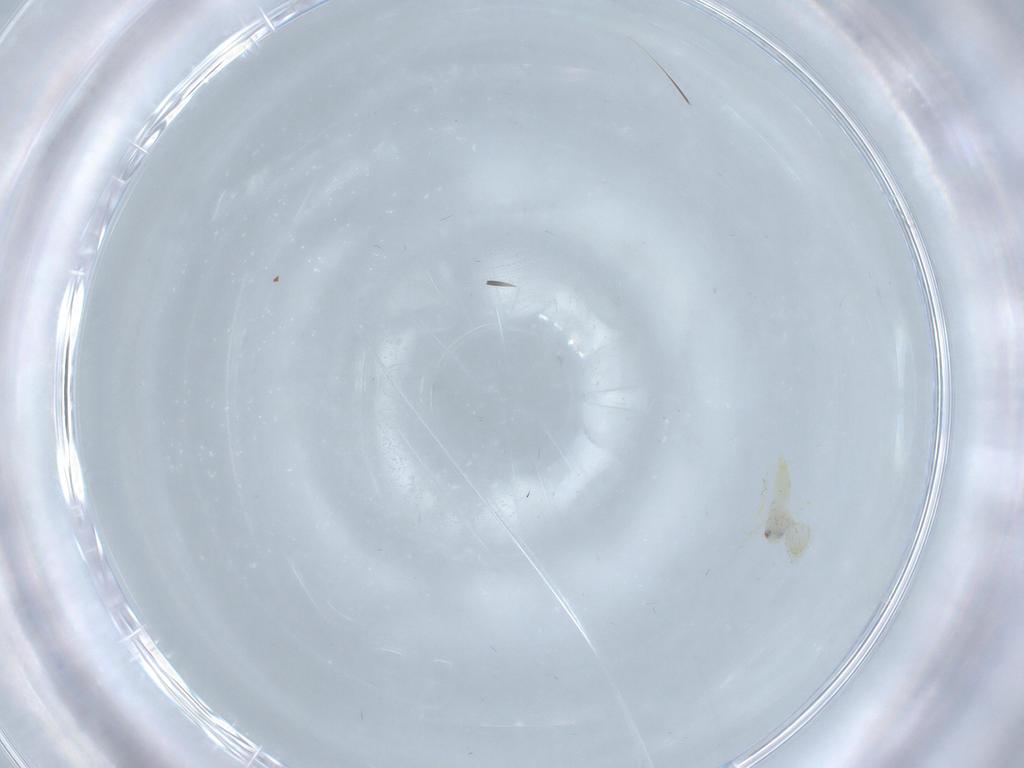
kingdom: Animalia
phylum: Arthropoda
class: Insecta
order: Hemiptera
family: Aleyrodidae
